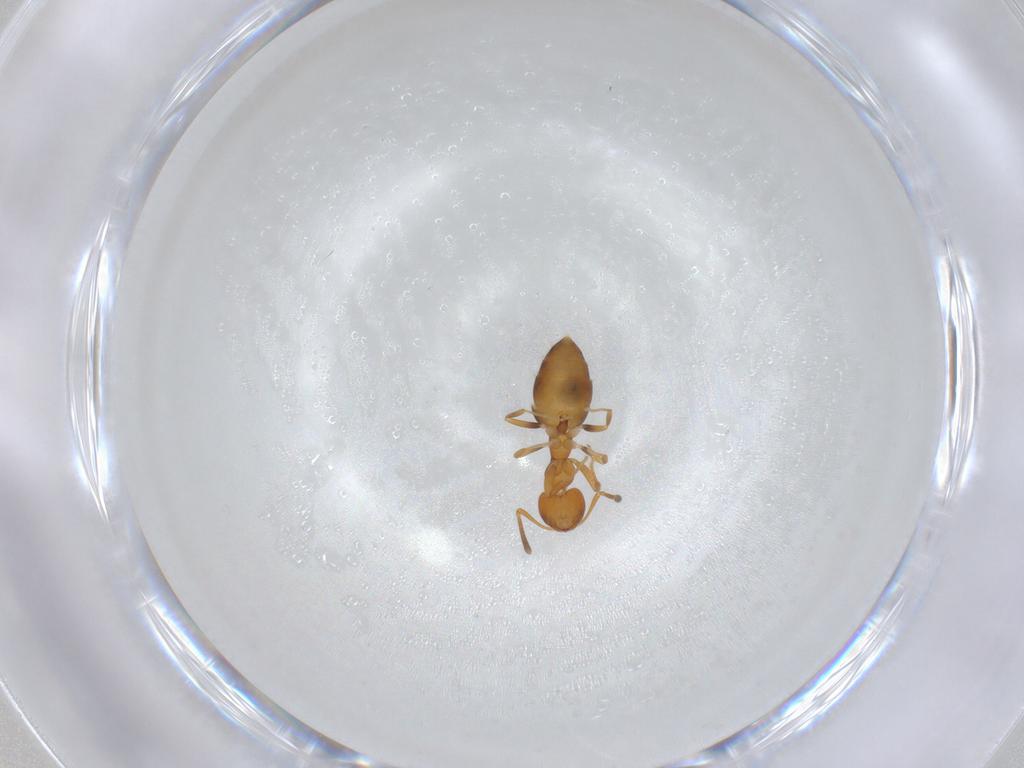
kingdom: Animalia
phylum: Arthropoda
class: Insecta
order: Diptera
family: Chironomidae
